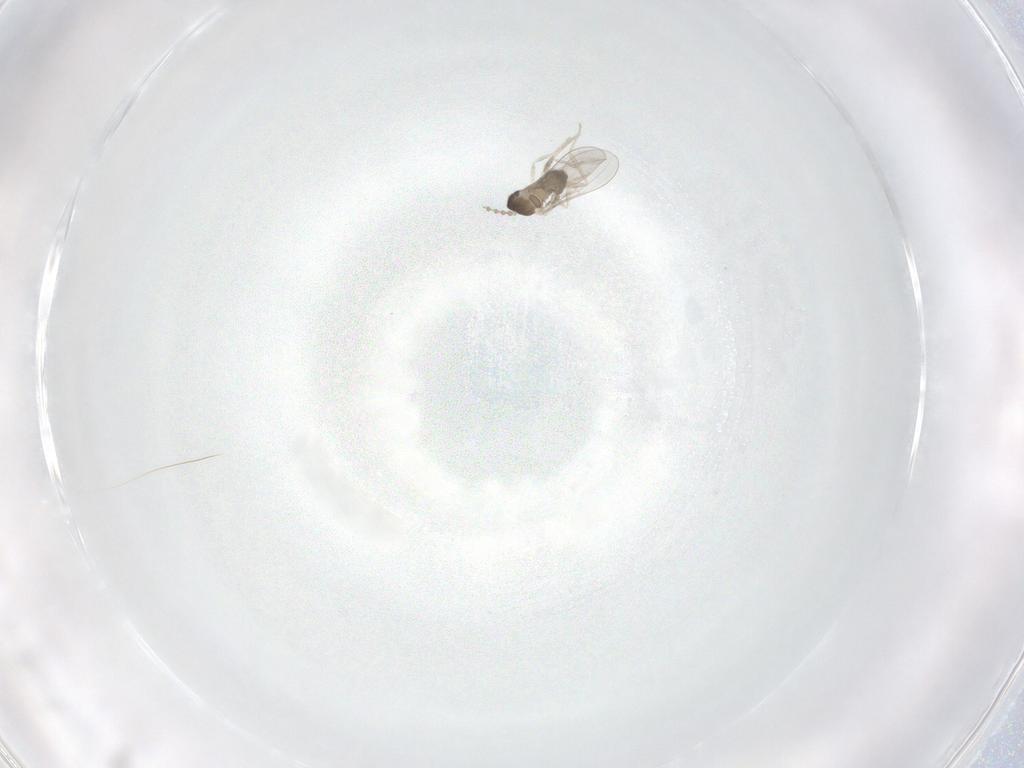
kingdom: Animalia
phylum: Arthropoda
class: Insecta
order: Diptera
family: Cecidomyiidae
